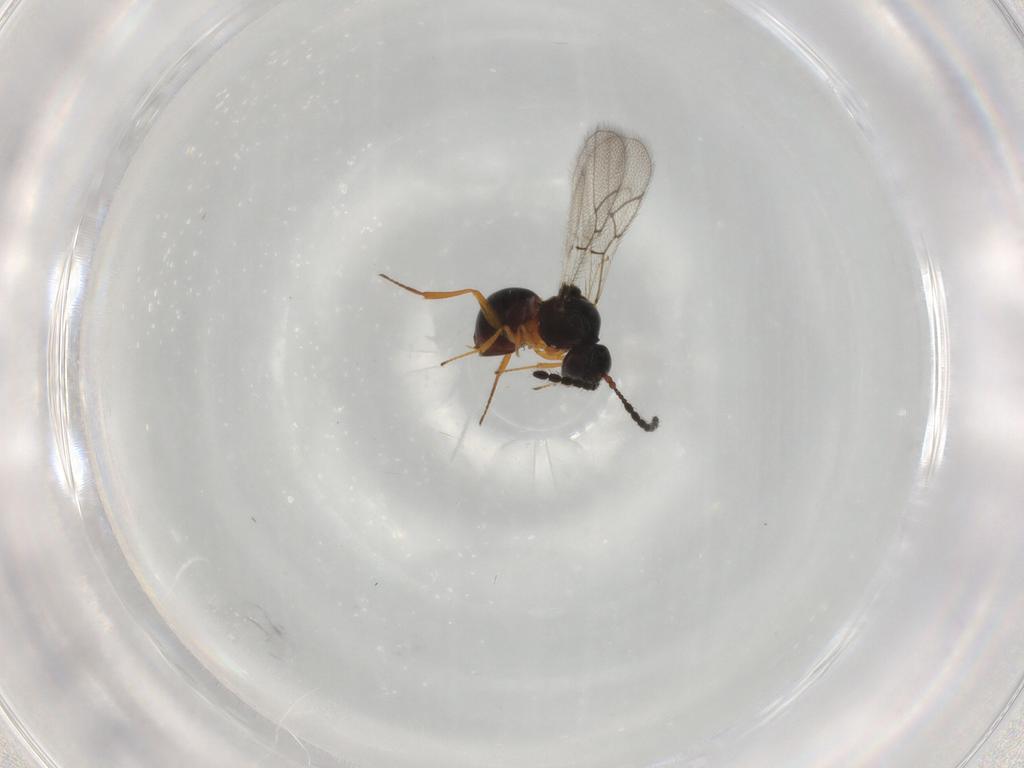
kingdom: Animalia
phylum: Arthropoda
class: Insecta
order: Hymenoptera
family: Figitidae
